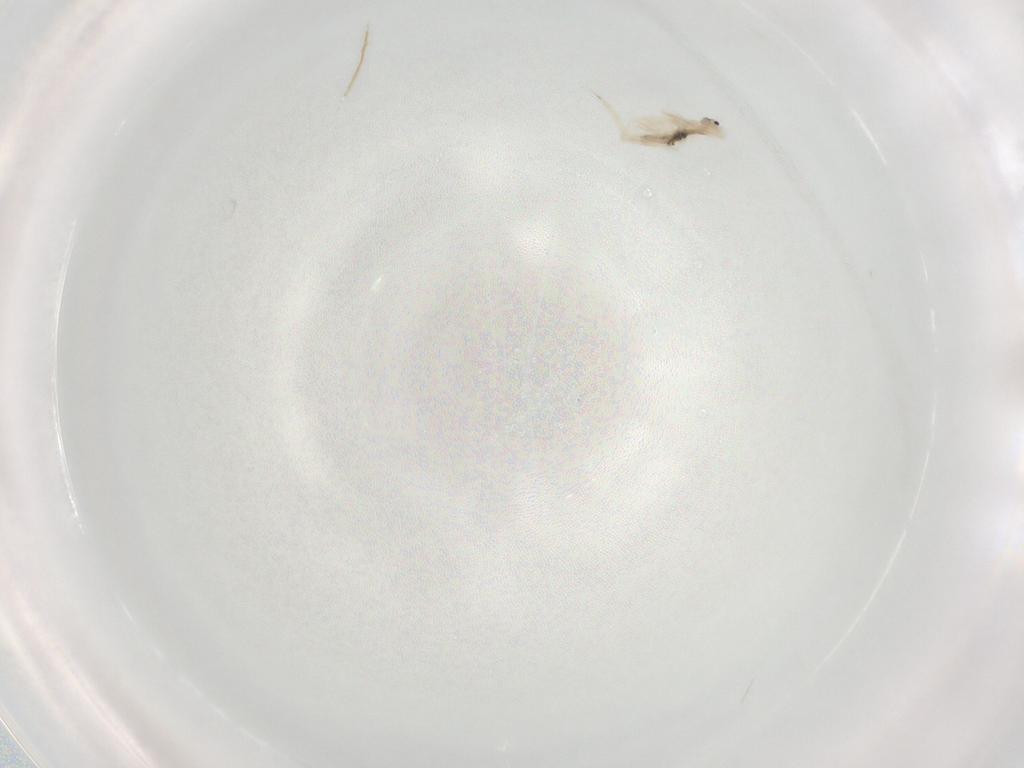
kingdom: Animalia
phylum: Arthropoda
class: Collembola
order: Entomobryomorpha
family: Entomobryidae
